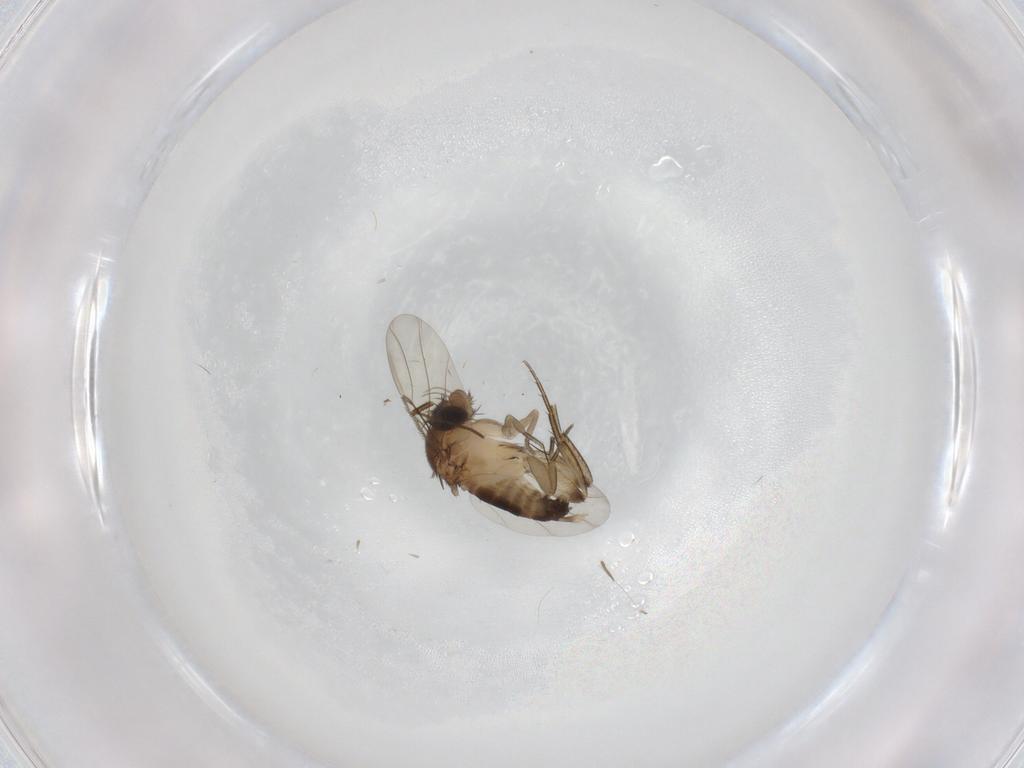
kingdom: Animalia
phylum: Arthropoda
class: Insecta
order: Diptera
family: Phoridae
